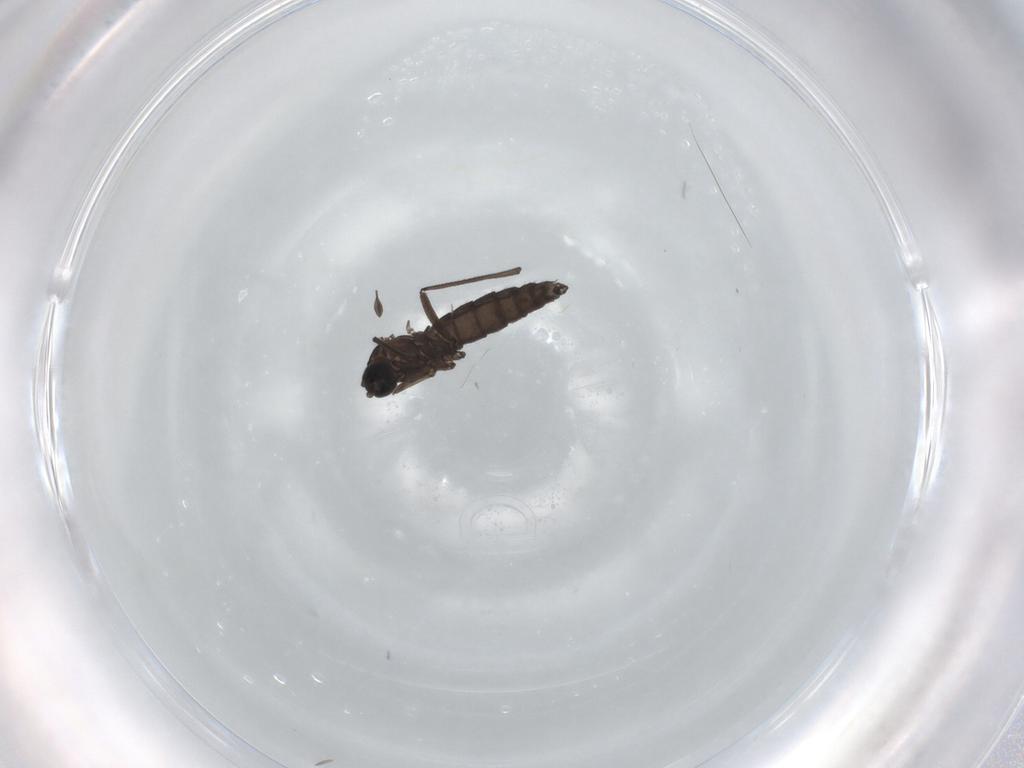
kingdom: Animalia
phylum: Arthropoda
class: Insecta
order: Diptera
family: Sciaridae
